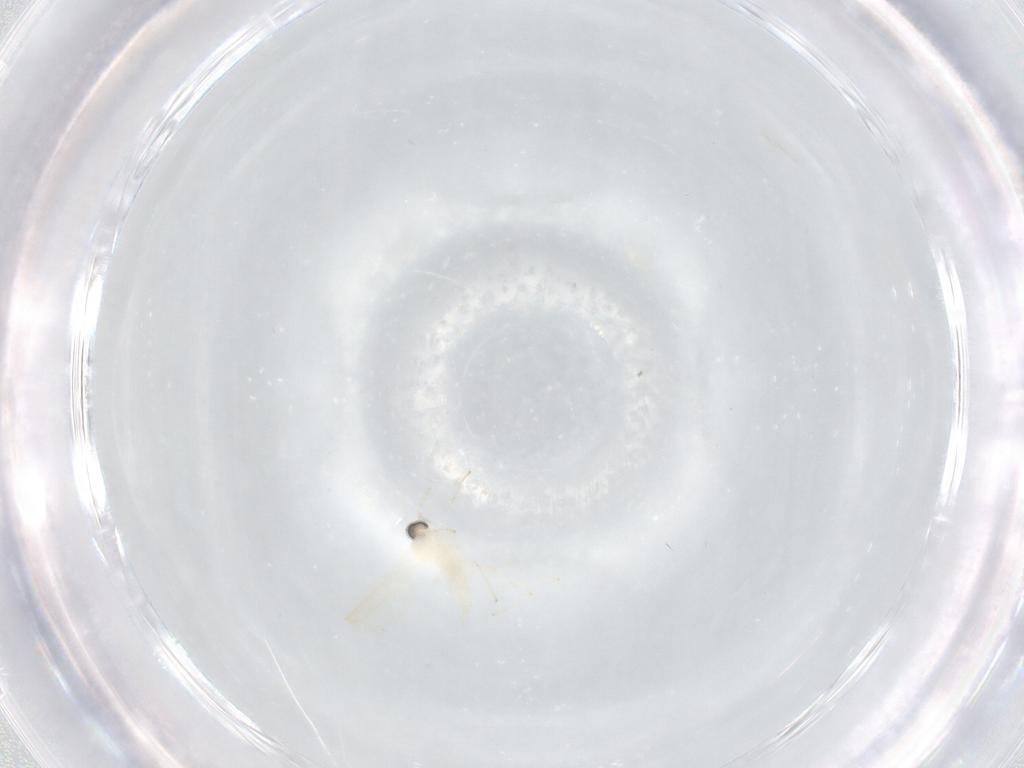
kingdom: Animalia
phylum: Arthropoda
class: Insecta
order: Diptera
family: Cecidomyiidae
